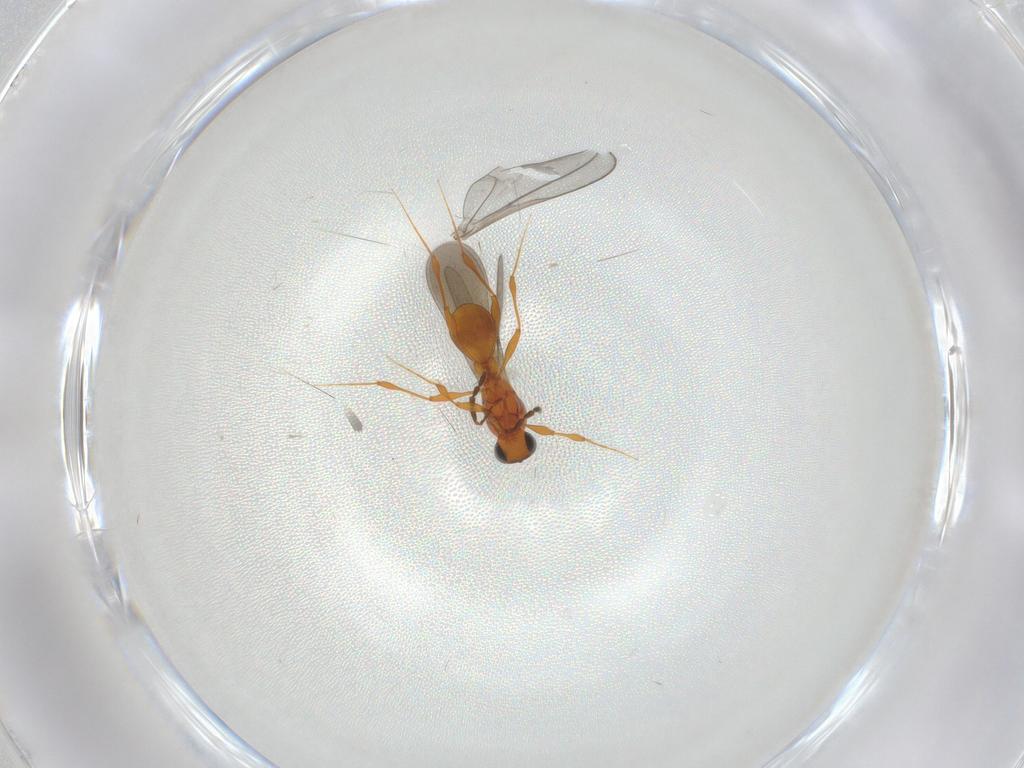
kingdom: Animalia
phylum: Arthropoda
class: Insecta
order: Hymenoptera
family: Platygastridae
